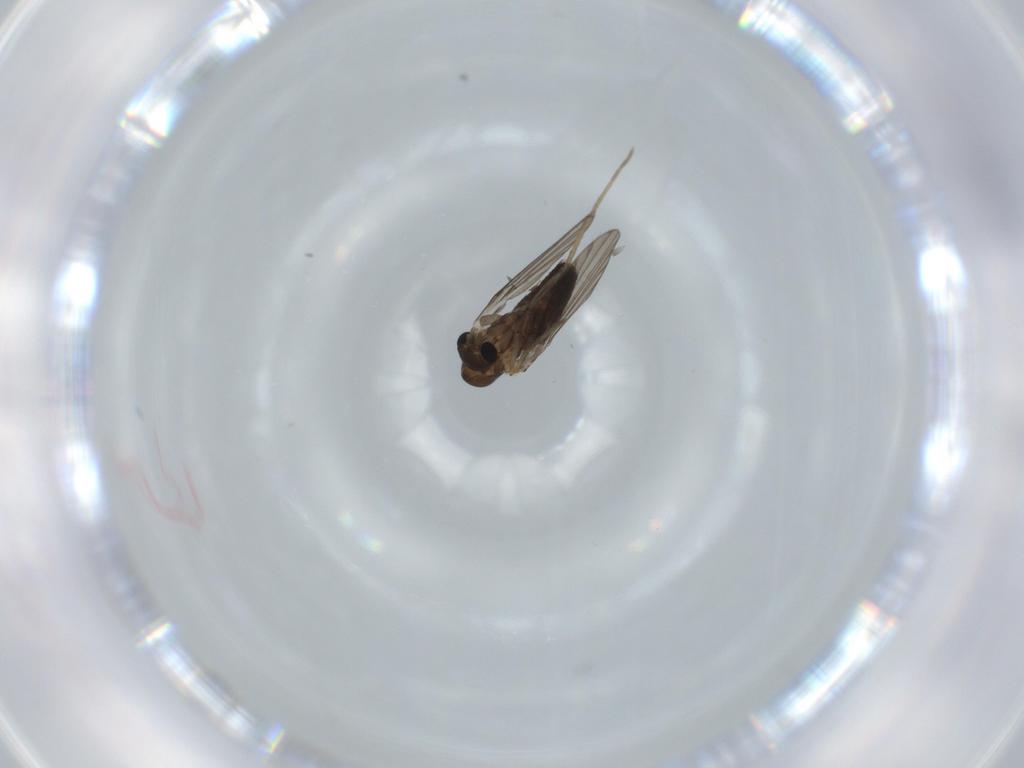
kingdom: Animalia
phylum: Arthropoda
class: Insecta
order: Diptera
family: Psychodidae
